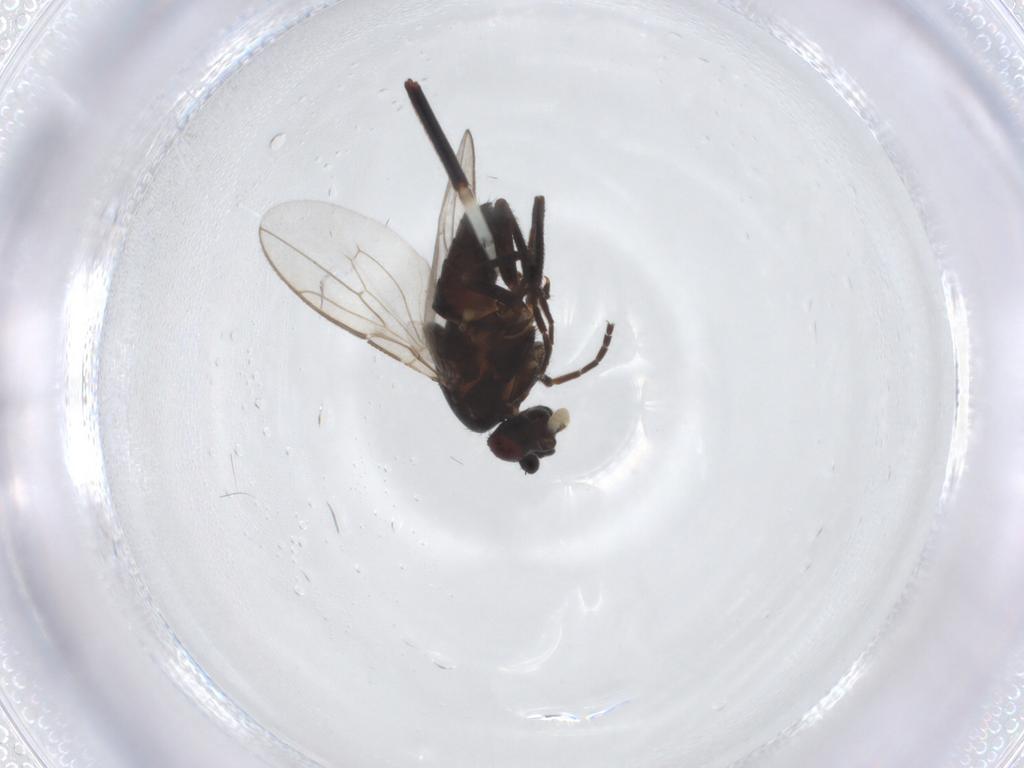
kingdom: Animalia
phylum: Arthropoda
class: Insecta
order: Diptera
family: Sphaeroceridae
